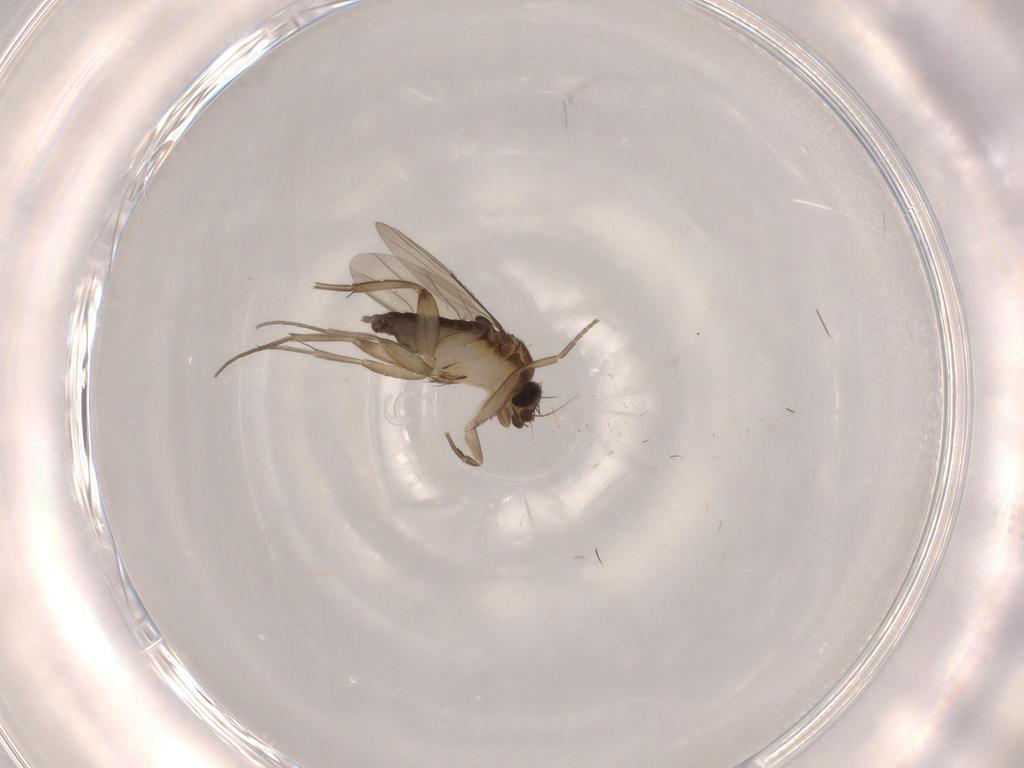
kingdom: Animalia
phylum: Arthropoda
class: Insecta
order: Diptera
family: Phoridae
